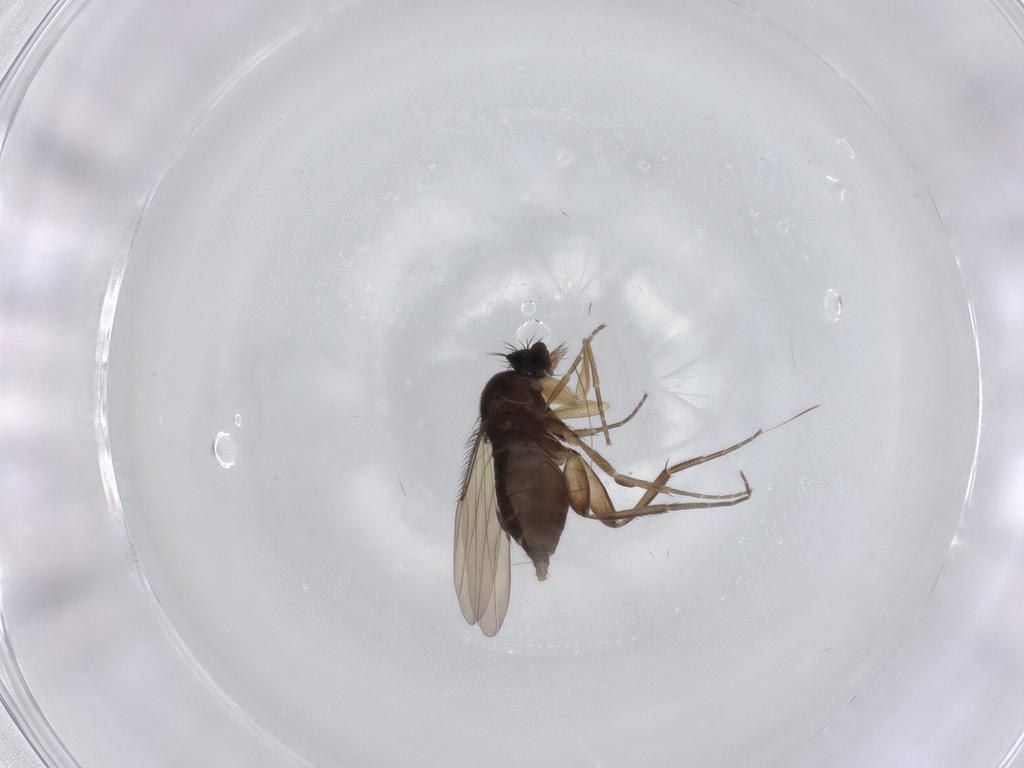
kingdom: Animalia
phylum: Arthropoda
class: Insecta
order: Diptera
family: Phoridae
